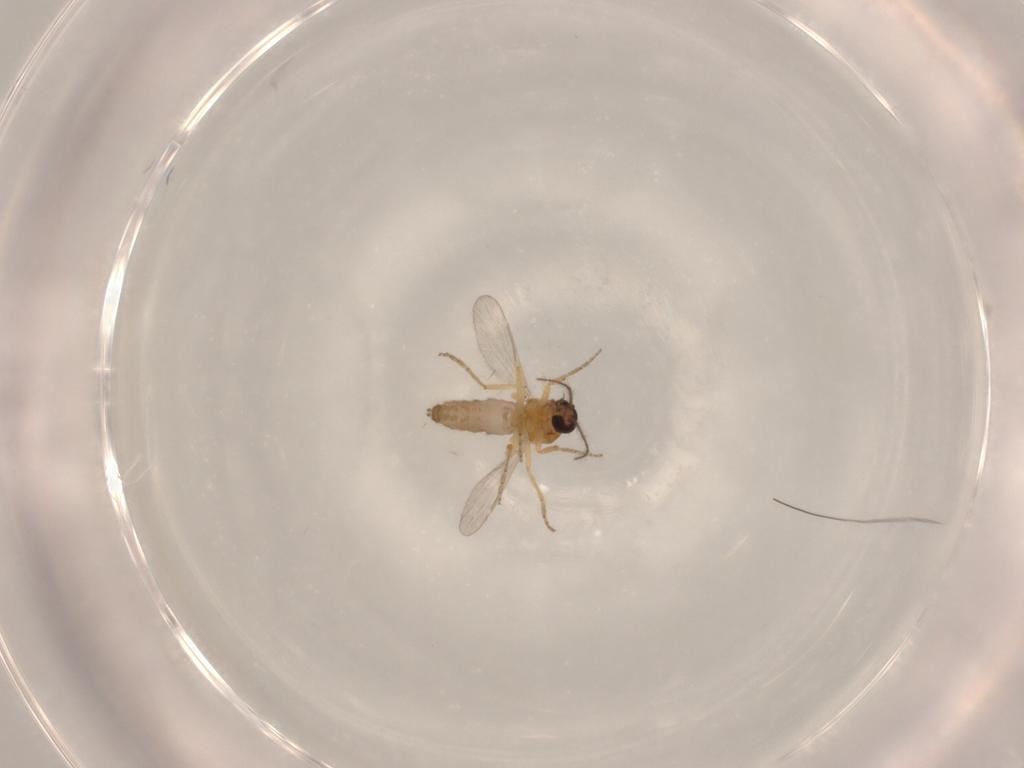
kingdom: Animalia
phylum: Arthropoda
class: Insecta
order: Diptera
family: Ceratopogonidae
